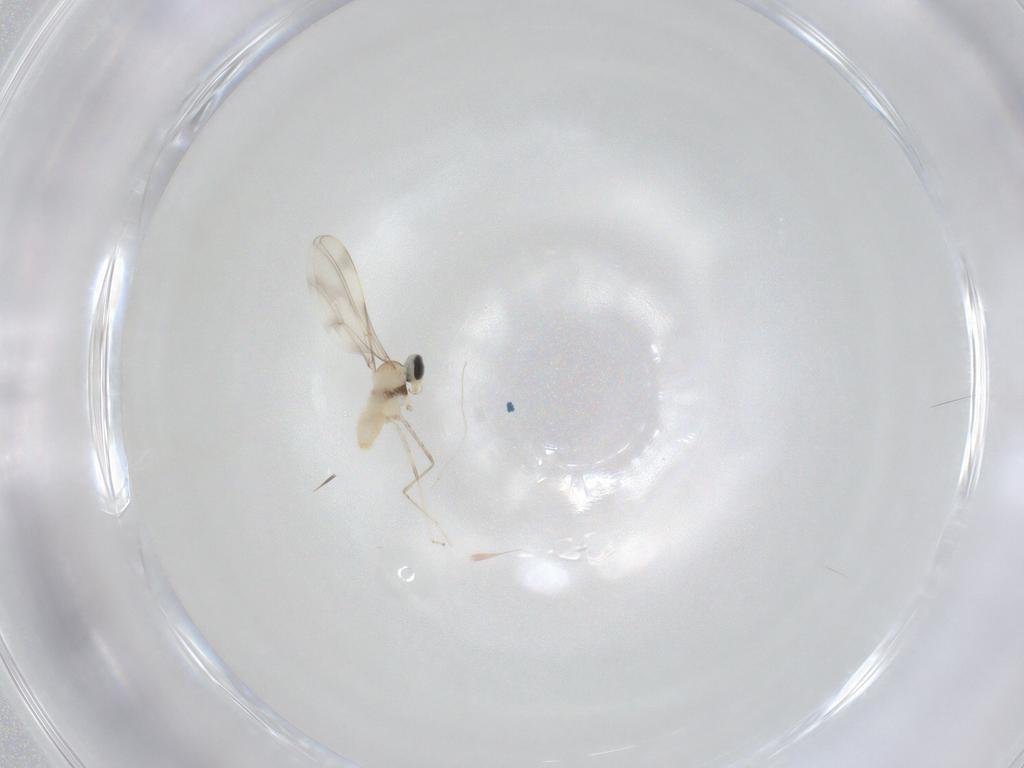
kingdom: Animalia
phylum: Arthropoda
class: Insecta
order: Diptera
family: Cecidomyiidae
